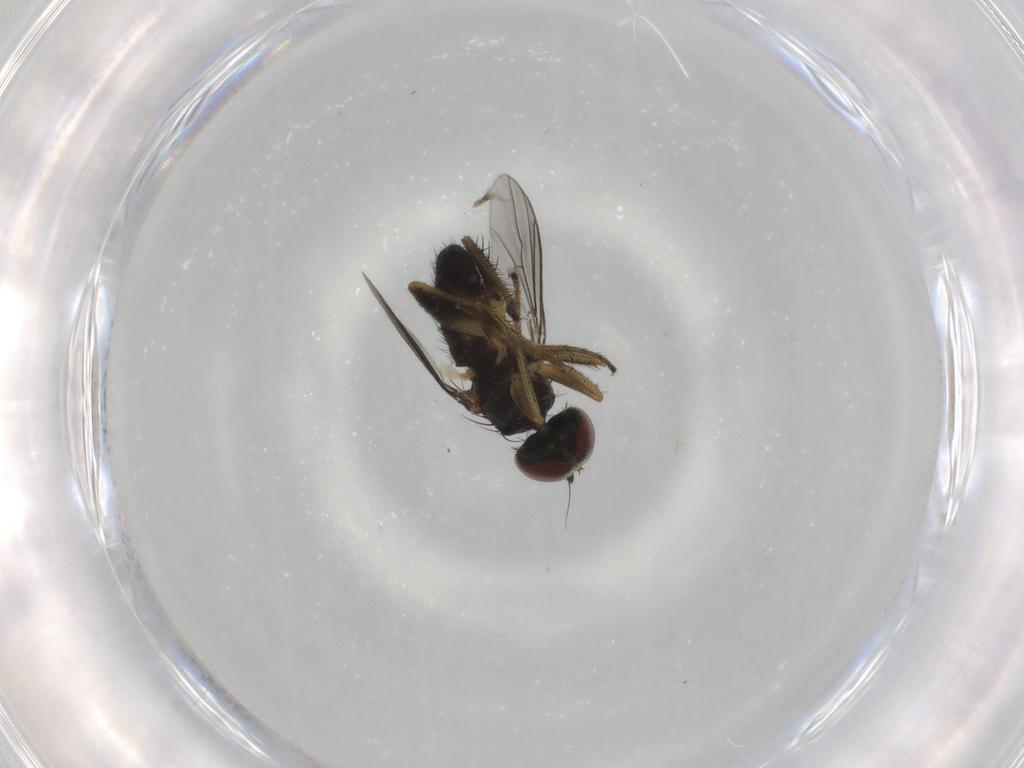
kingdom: Animalia
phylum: Arthropoda
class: Insecta
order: Diptera
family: Dolichopodidae
